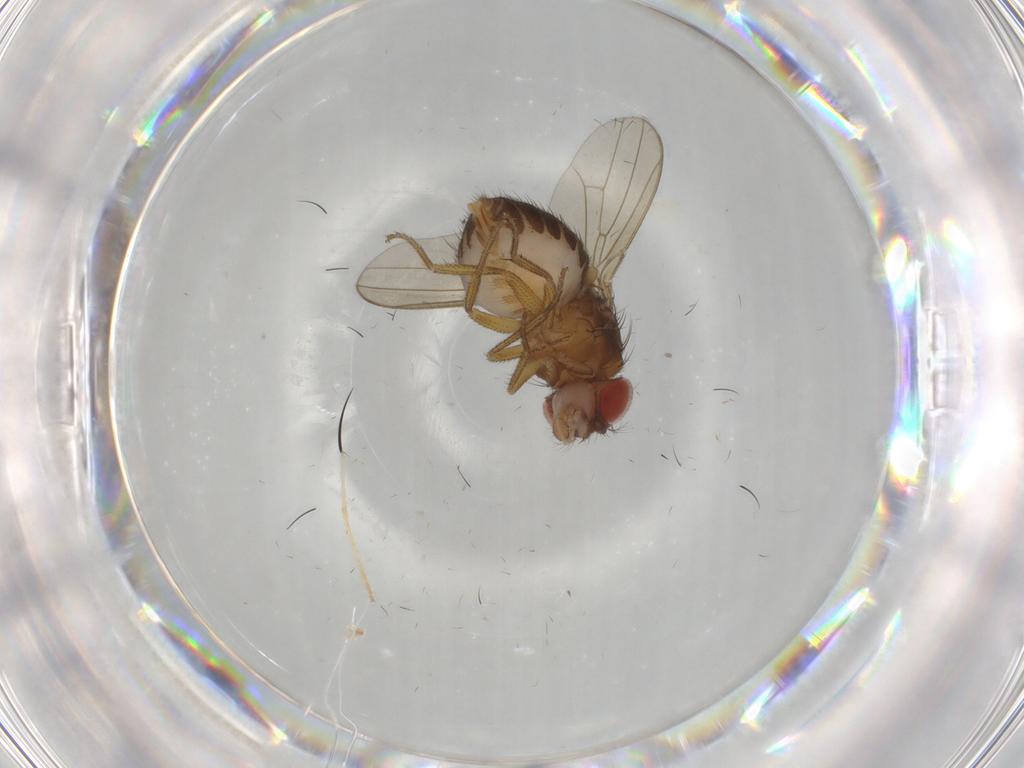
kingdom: Animalia
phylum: Arthropoda
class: Insecta
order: Diptera
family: Drosophilidae
